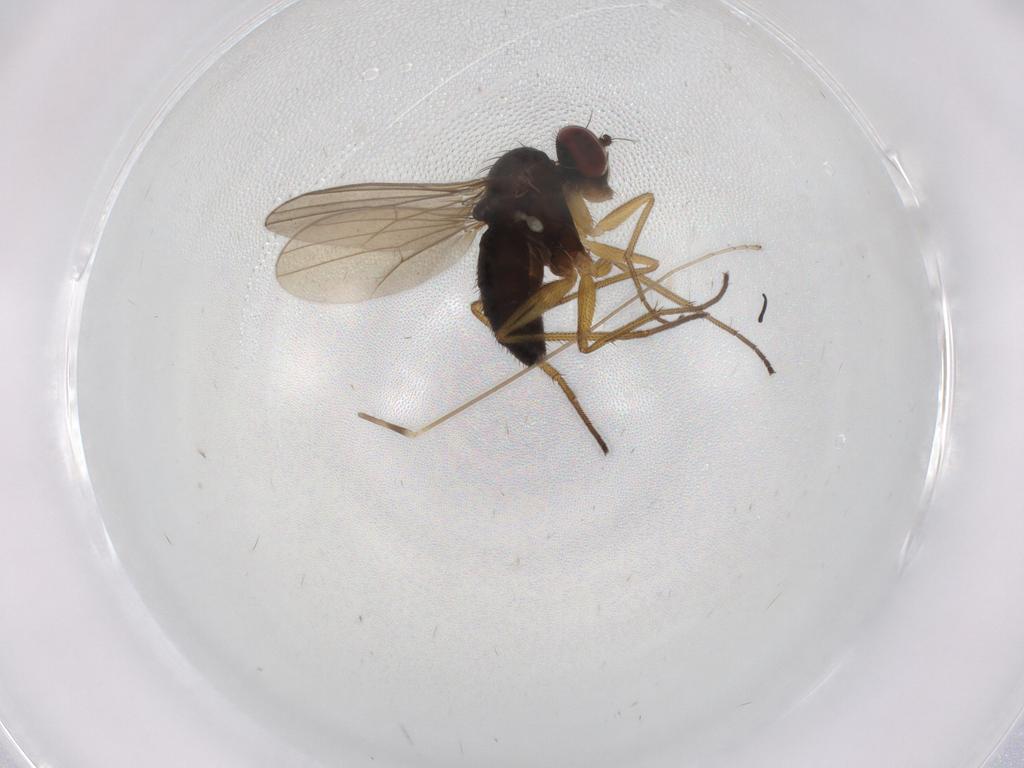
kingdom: Animalia
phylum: Arthropoda
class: Insecta
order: Diptera
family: Dolichopodidae
